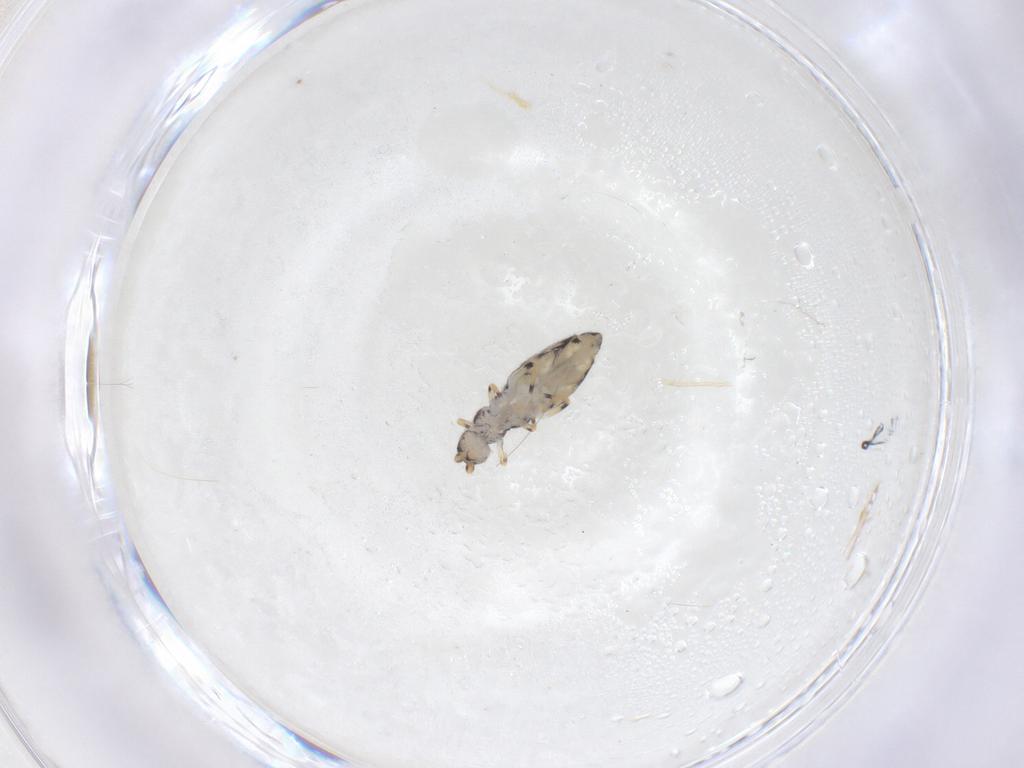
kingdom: Animalia
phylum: Arthropoda
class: Collembola
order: Entomobryomorpha
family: Entomobryidae
